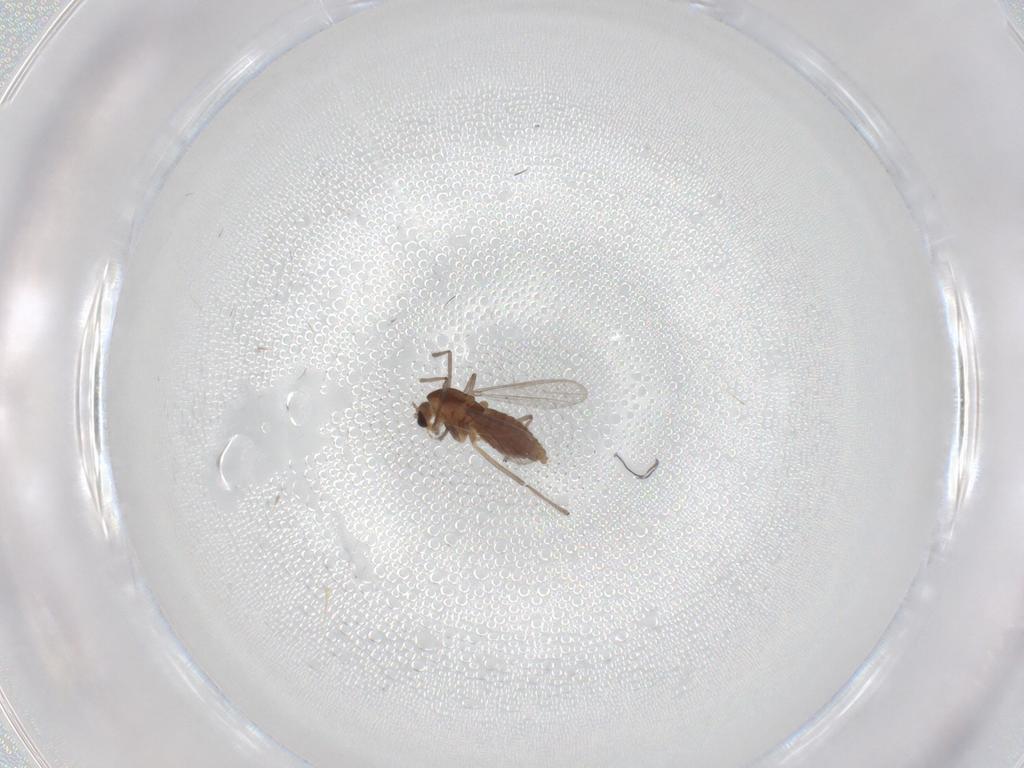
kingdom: Animalia
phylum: Arthropoda
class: Insecta
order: Diptera
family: Chironomidae
